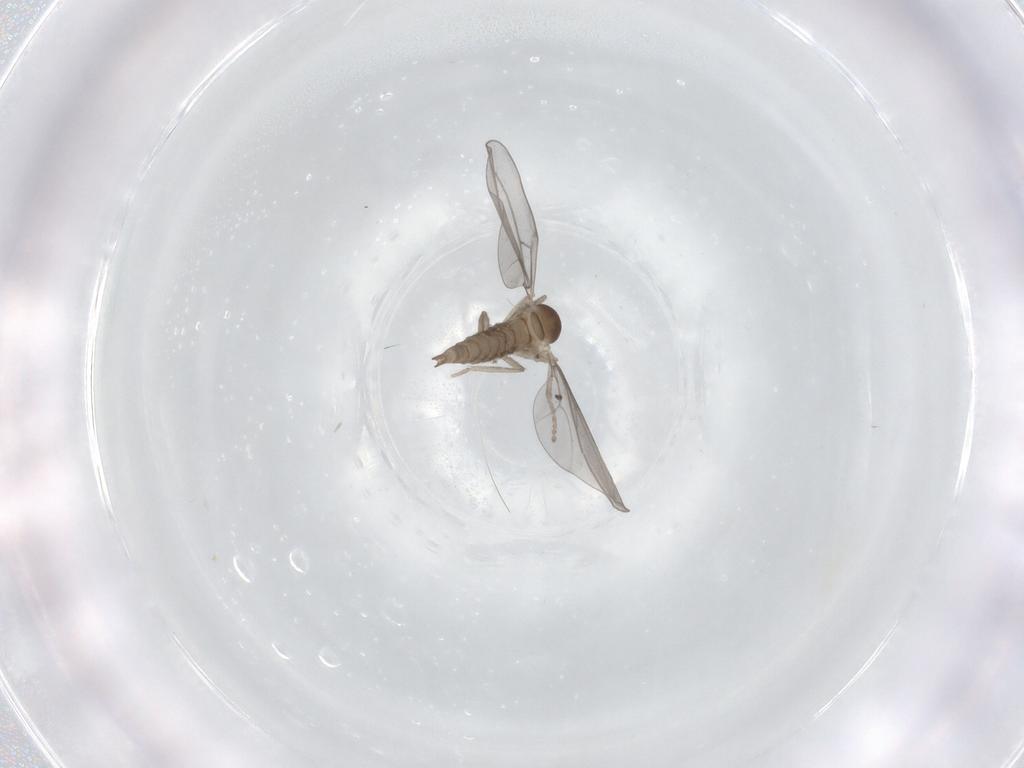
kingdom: Animalia
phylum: Arthropoda
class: Insecta
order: Diptera
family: Cecidomyiidae
